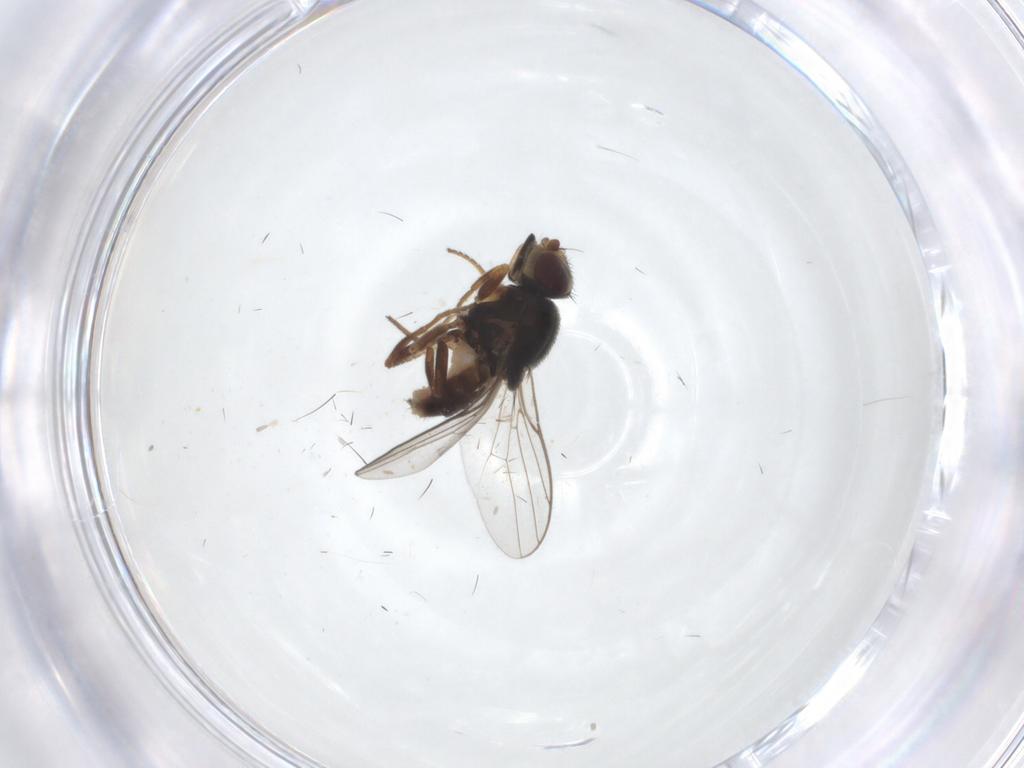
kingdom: Animalia
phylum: Arthropoda
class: Insecta
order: Diptera
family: Chloropidae
